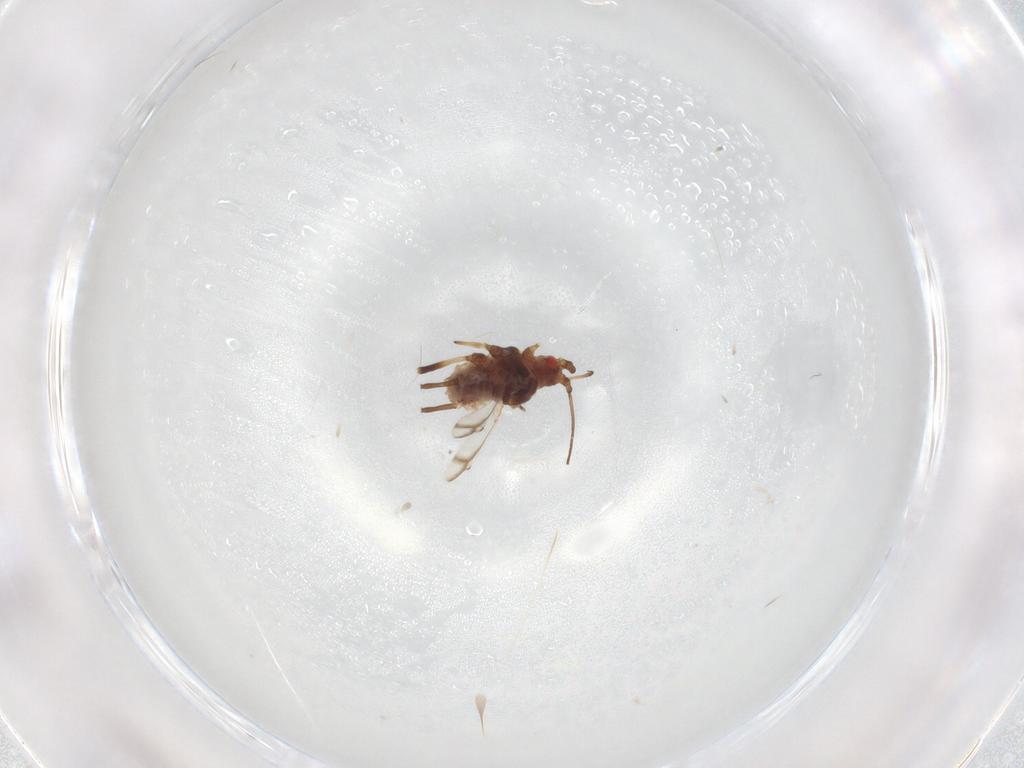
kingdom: Animalia
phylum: Arthropoda
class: Insecta
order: Hemiptera
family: Aphididae
